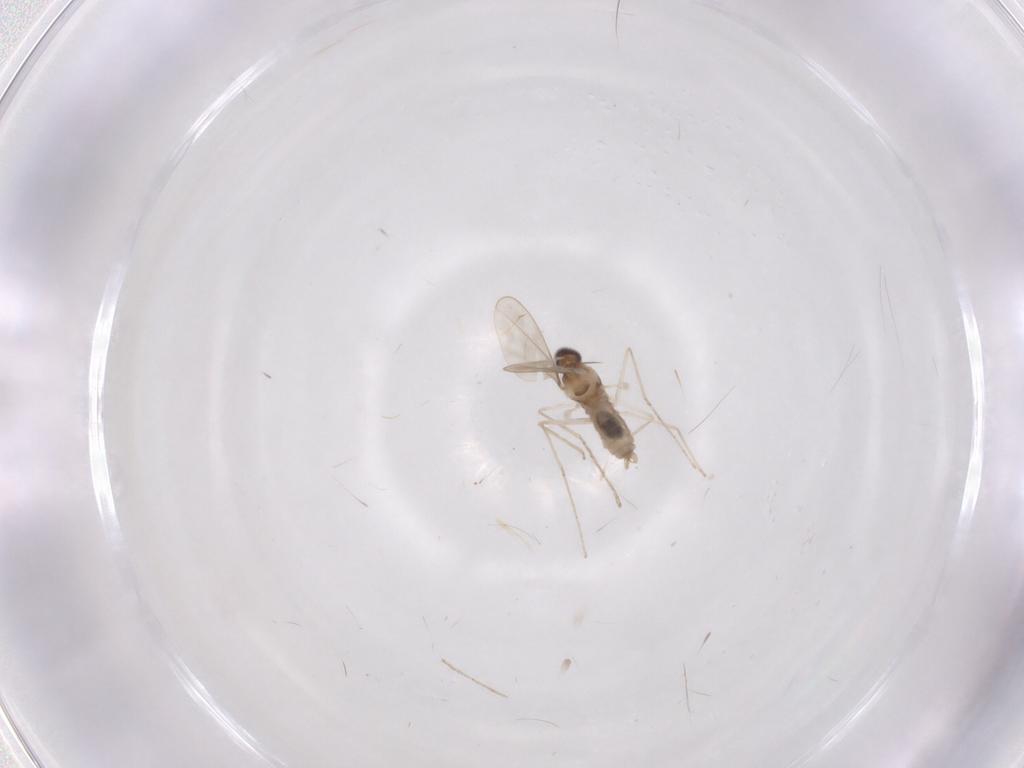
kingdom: Animalia
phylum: Arthropoda
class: Insecta
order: Diptera
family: Cecidomyiidae
